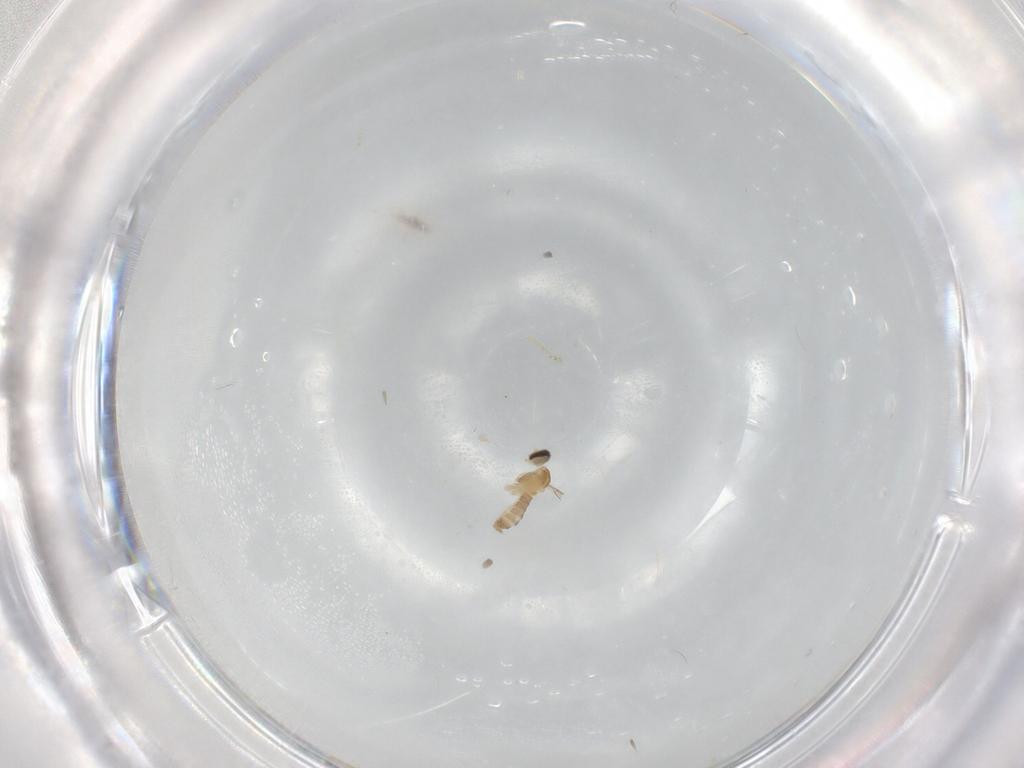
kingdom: Animalia
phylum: Arthropoda
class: Insecta
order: Diptera
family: Cecidomyiidae
